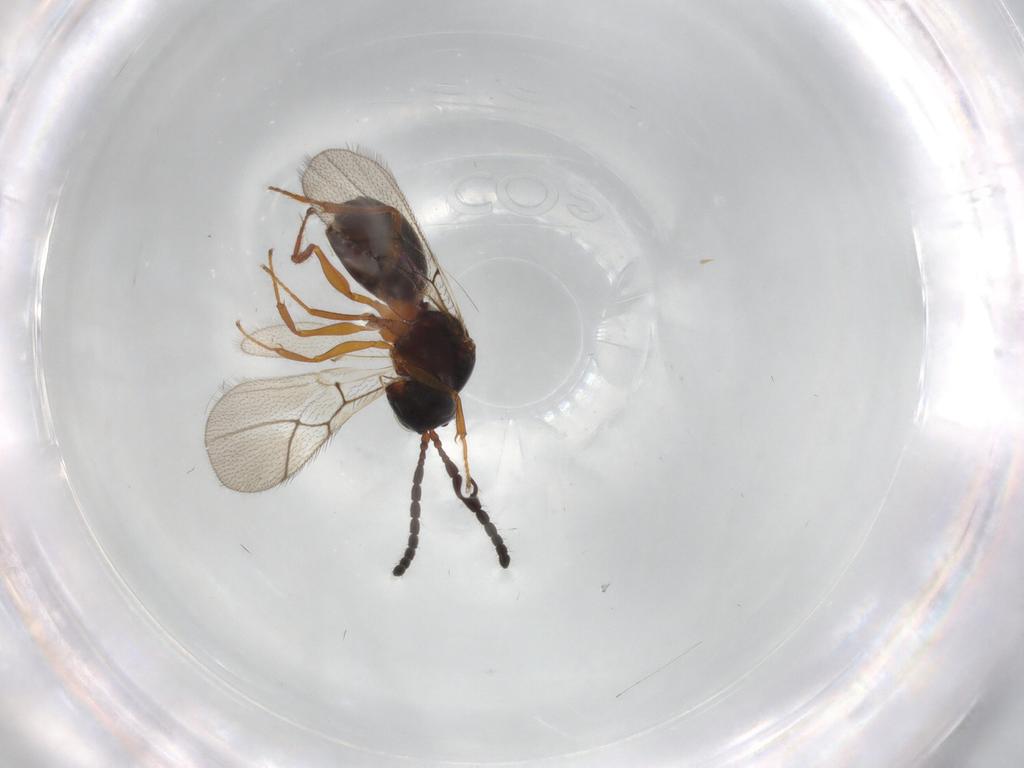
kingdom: Animalia
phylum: Arthropoda
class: Insecta
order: Hymenoptera
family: Figitidae
